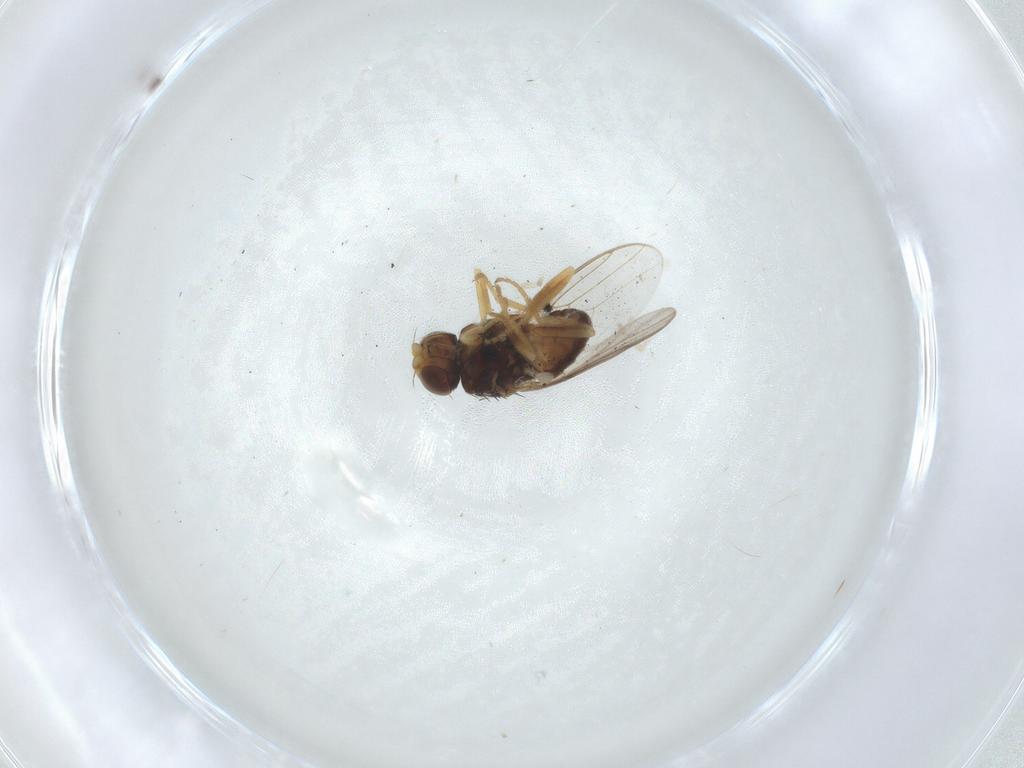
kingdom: Animalia
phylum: Arthropoda
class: Insecta
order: Diptera
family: Chloropidae
